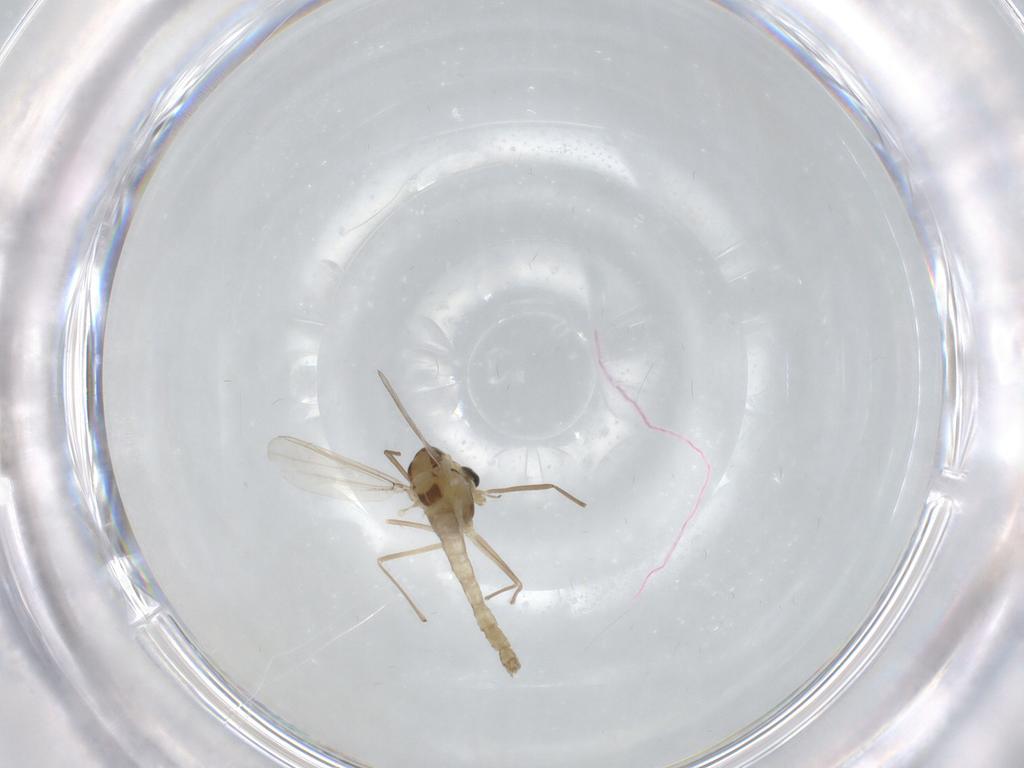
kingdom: Animalia
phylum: Arthropoda
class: Insecta
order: Diptera
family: Chironomidae
